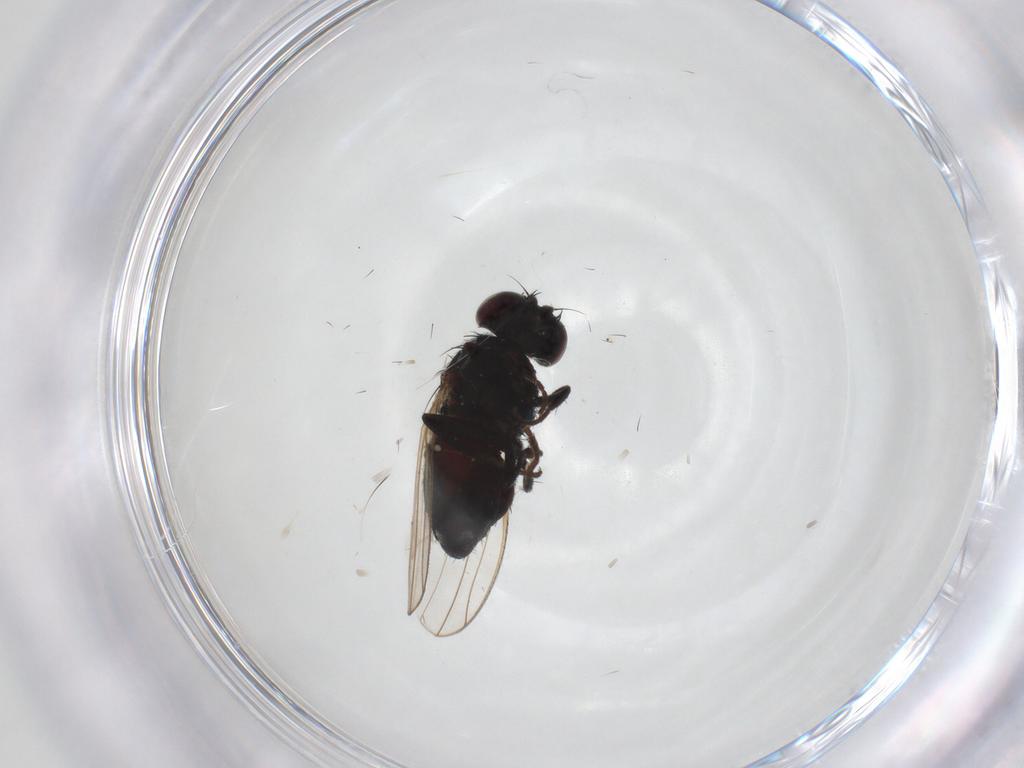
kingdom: Animalia
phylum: Arthropoda
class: Insecta
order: Diptera
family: Carnidae
